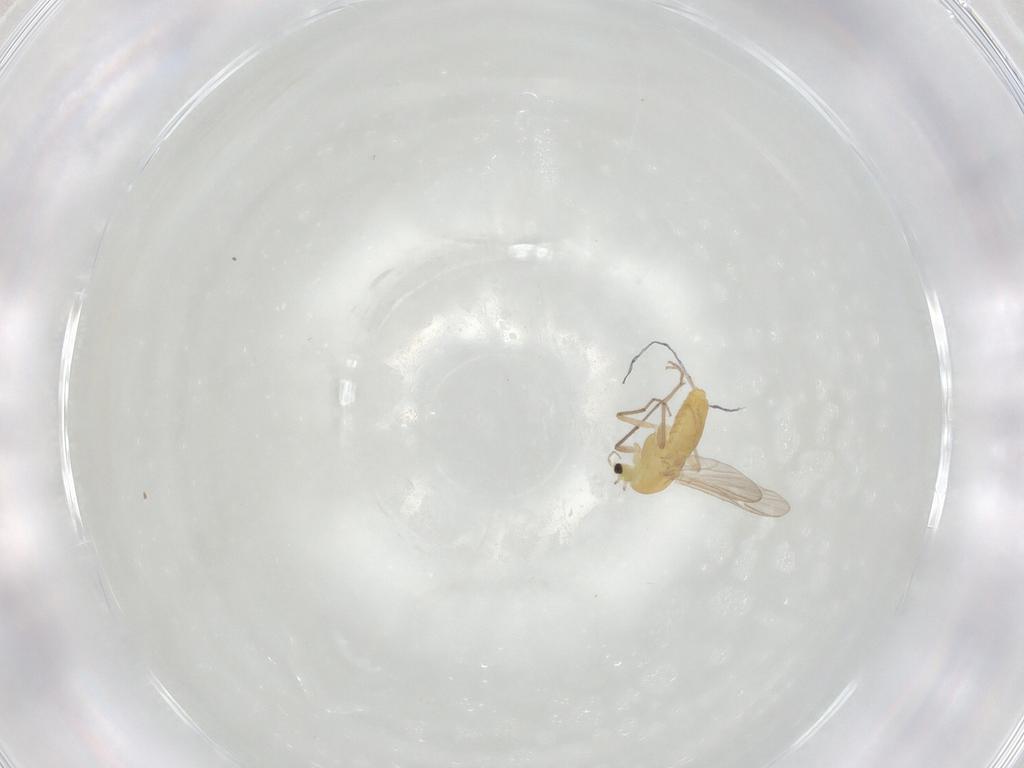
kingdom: Animalia
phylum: Arthropoda
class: Insecta
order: Diptera
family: Chironomidae
